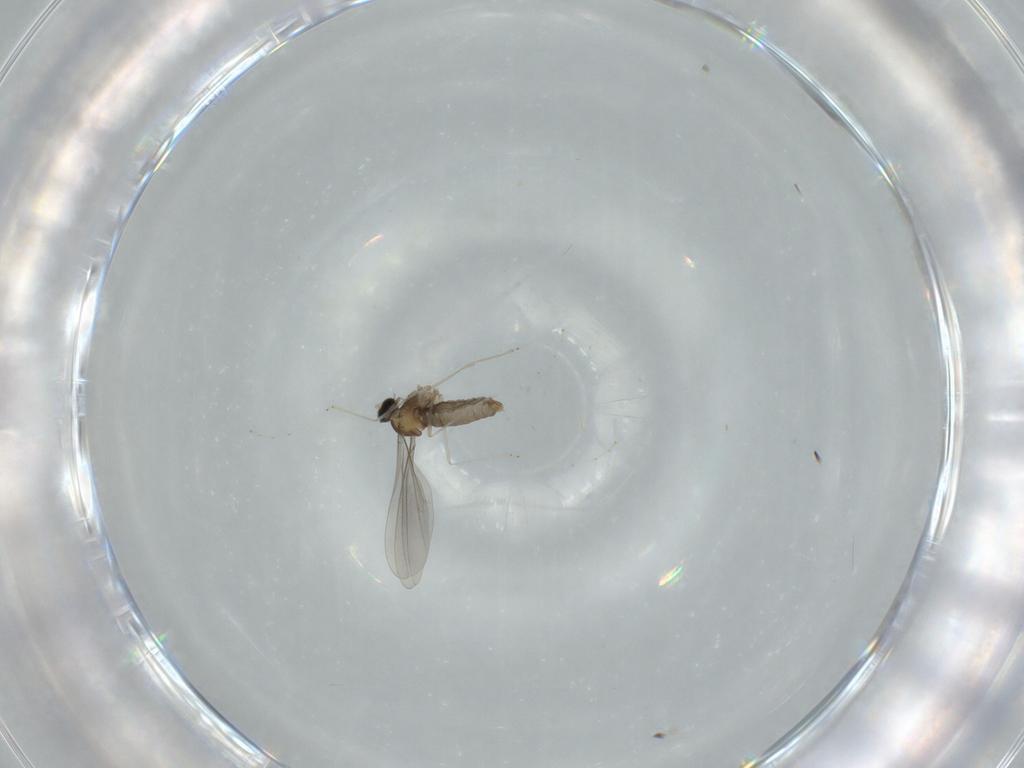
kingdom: Animalia
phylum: Arthropoda
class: Insecta
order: Diptera
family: Cecidomyiidae
